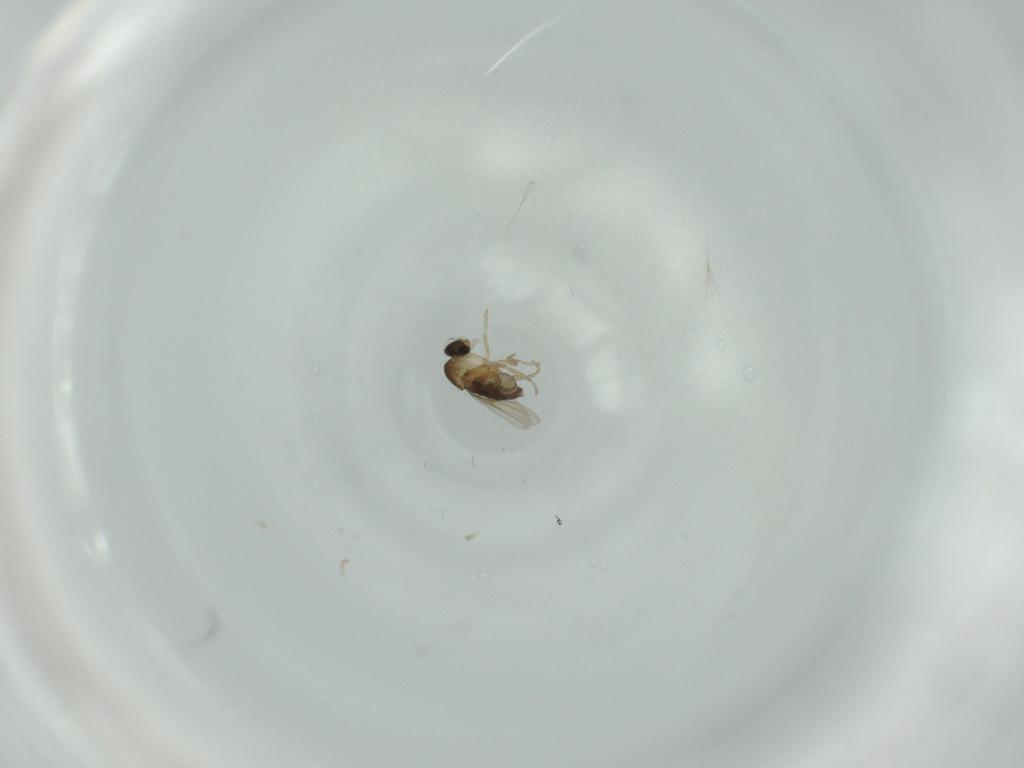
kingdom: Animalia
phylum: Arthropoda
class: Insecta
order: Diptera
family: Phoridae
